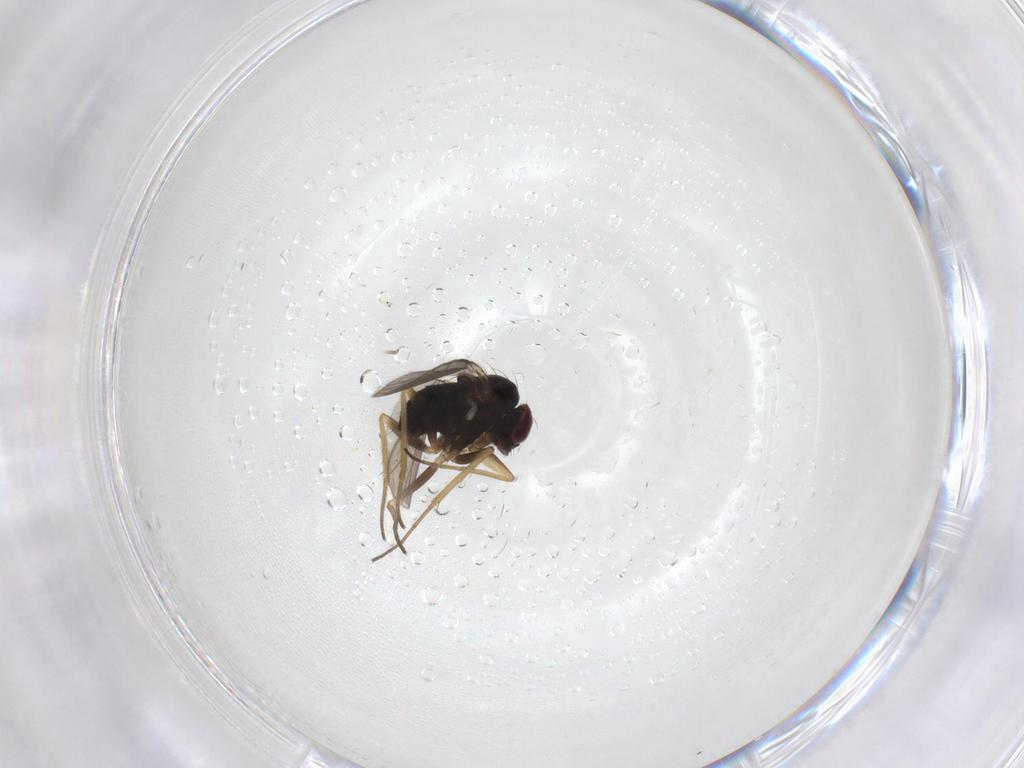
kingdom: Animalia
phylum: Arthropoda
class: Insecta
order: Diptera
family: Dolichopodidae
